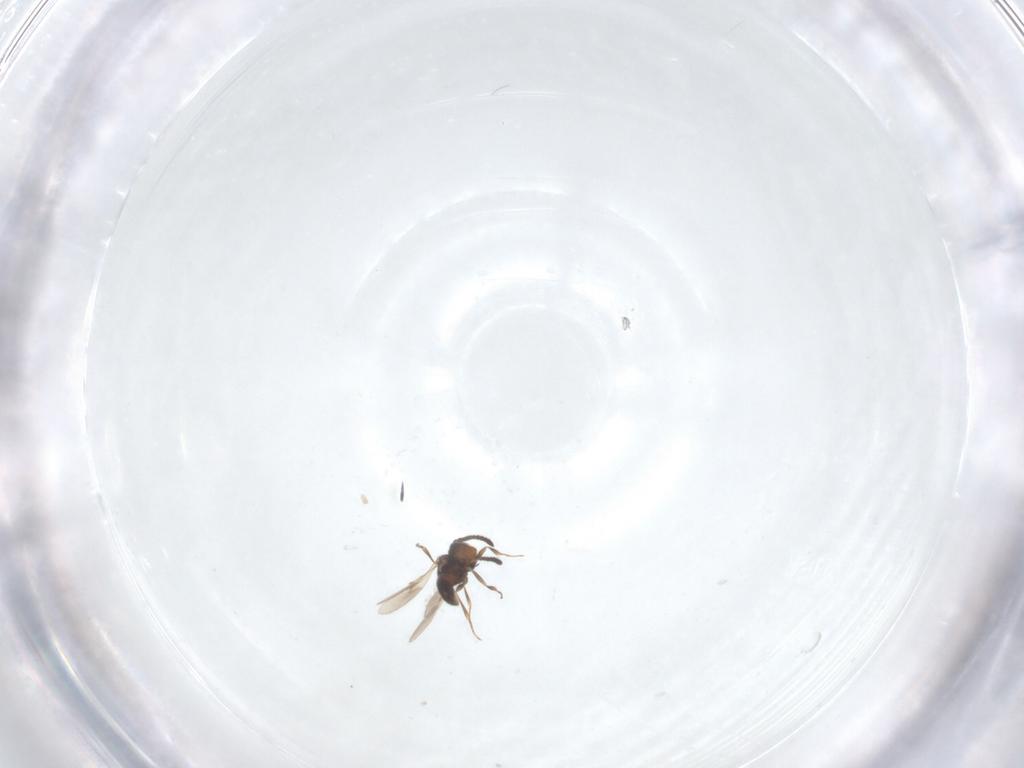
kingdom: Animalia
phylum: Arthropoda
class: Insecta
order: Hymenoptera
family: Scelionidae
